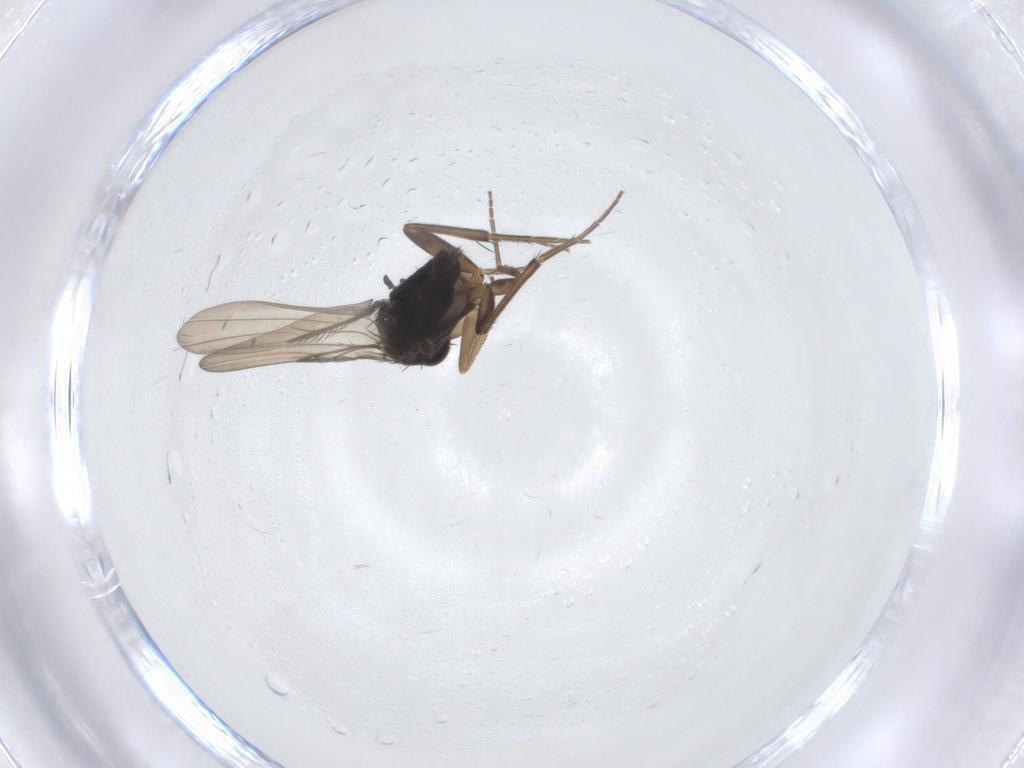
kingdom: Animalia
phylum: Arthropoda
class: Insecta
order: Diptera
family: Phoridae
